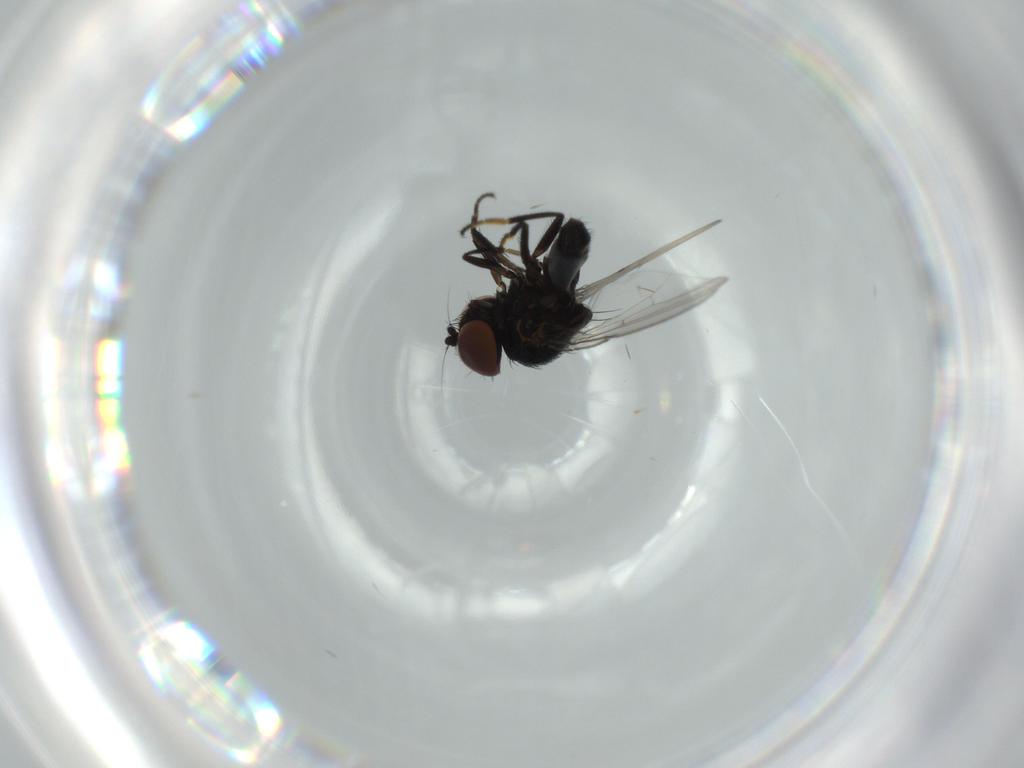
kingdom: Animalia
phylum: Arthropoda
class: Insecta
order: Diptera
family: Milichiidae
